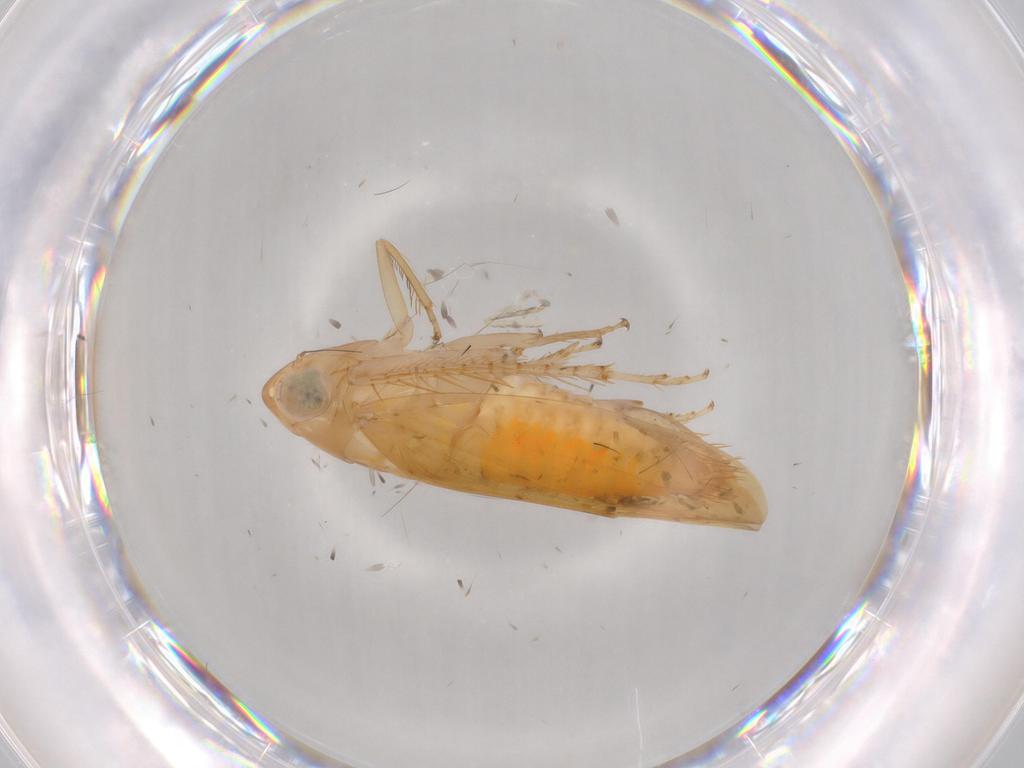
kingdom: Animalia
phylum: Arthropoda
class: Insecta
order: Hemiptera
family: Cicadellidae
